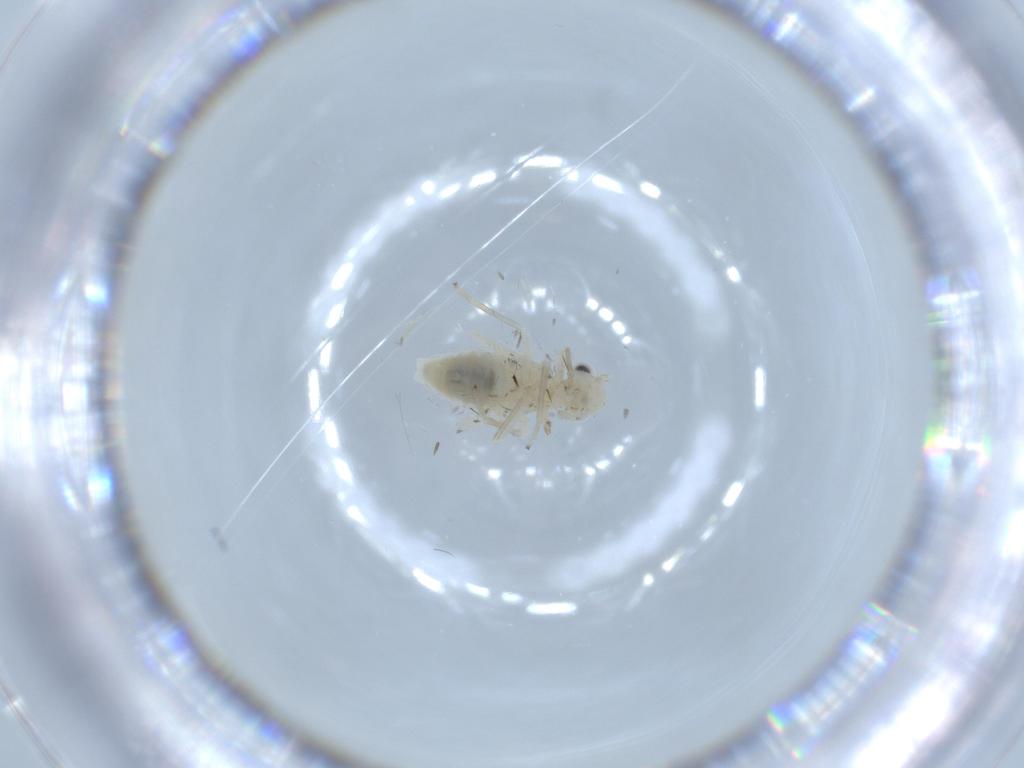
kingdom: Animalia
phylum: Arthropoda
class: Insecta
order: Psocodea
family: Caeciliusidae
